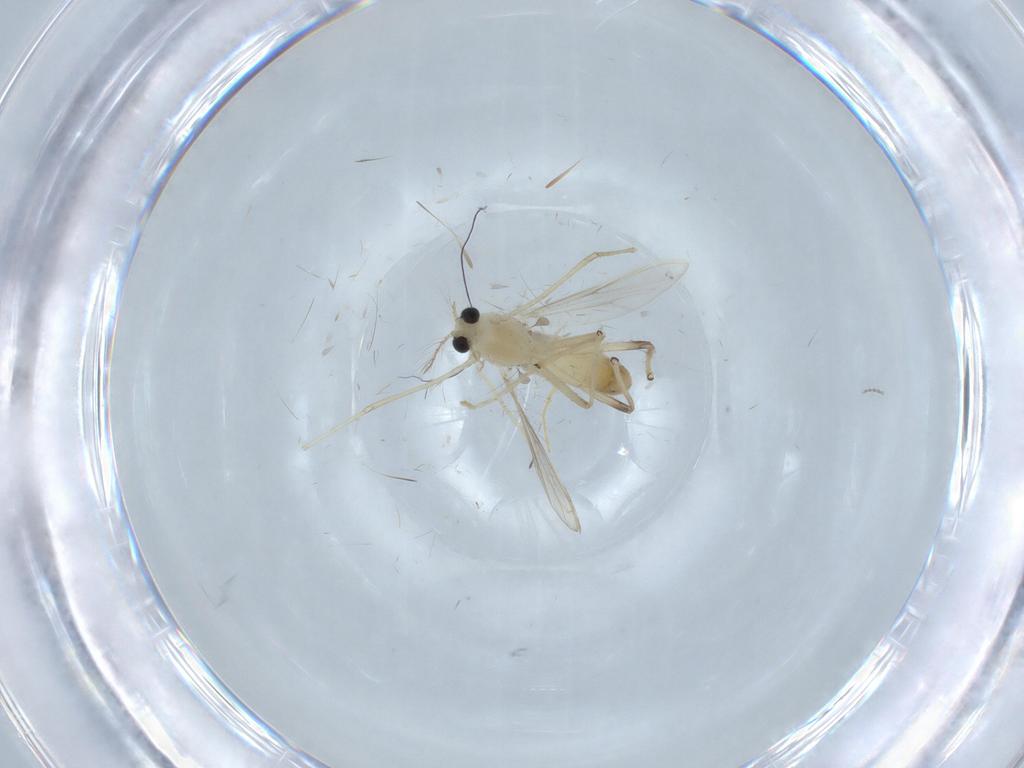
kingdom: Animalia
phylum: Arthropoda
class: Insecta
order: Diptera
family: Chironomidae
